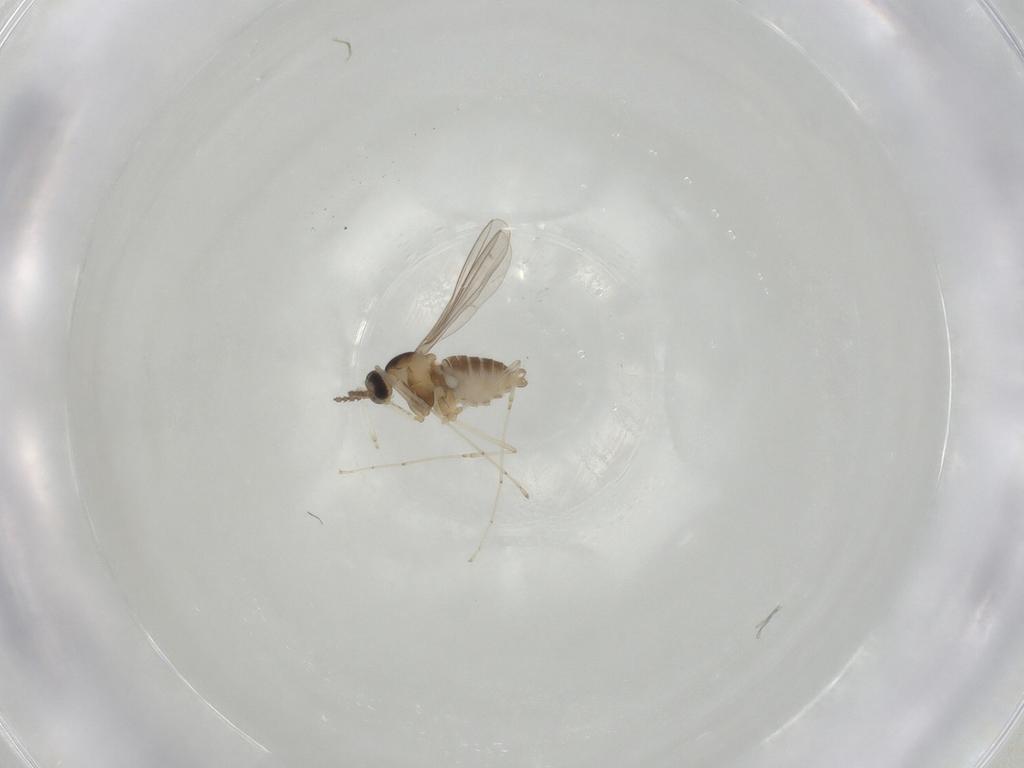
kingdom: Animalia
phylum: Arthropoda
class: Insecta
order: Diptera
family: Cecidomyiidae
